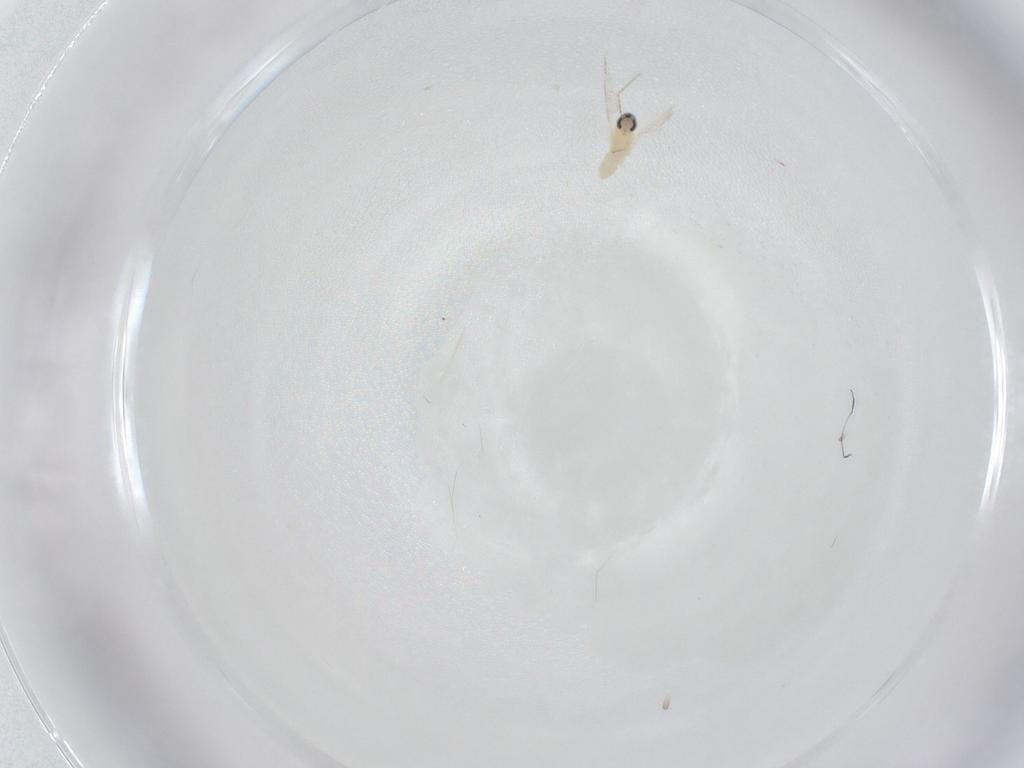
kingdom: Animalia
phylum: Arthropoda
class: Insecta
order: Diptera
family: Cecidomyiidae
